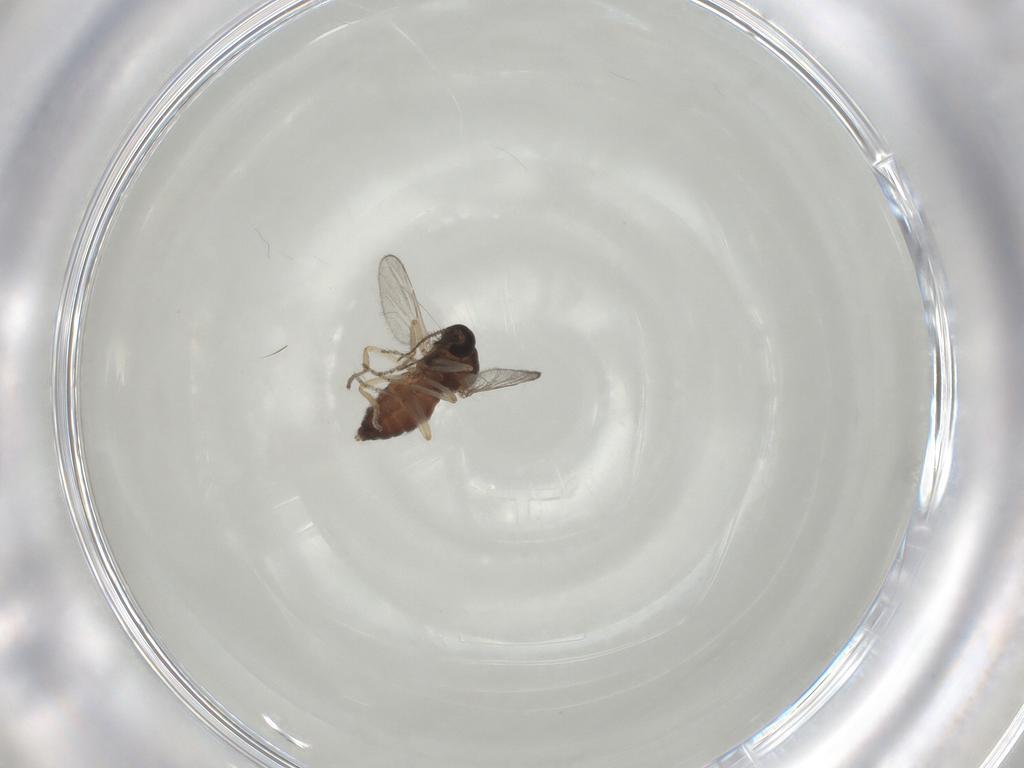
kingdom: Animalia
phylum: Arthropoda
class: Insecta
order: Diptera
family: Ceratopogonidae
